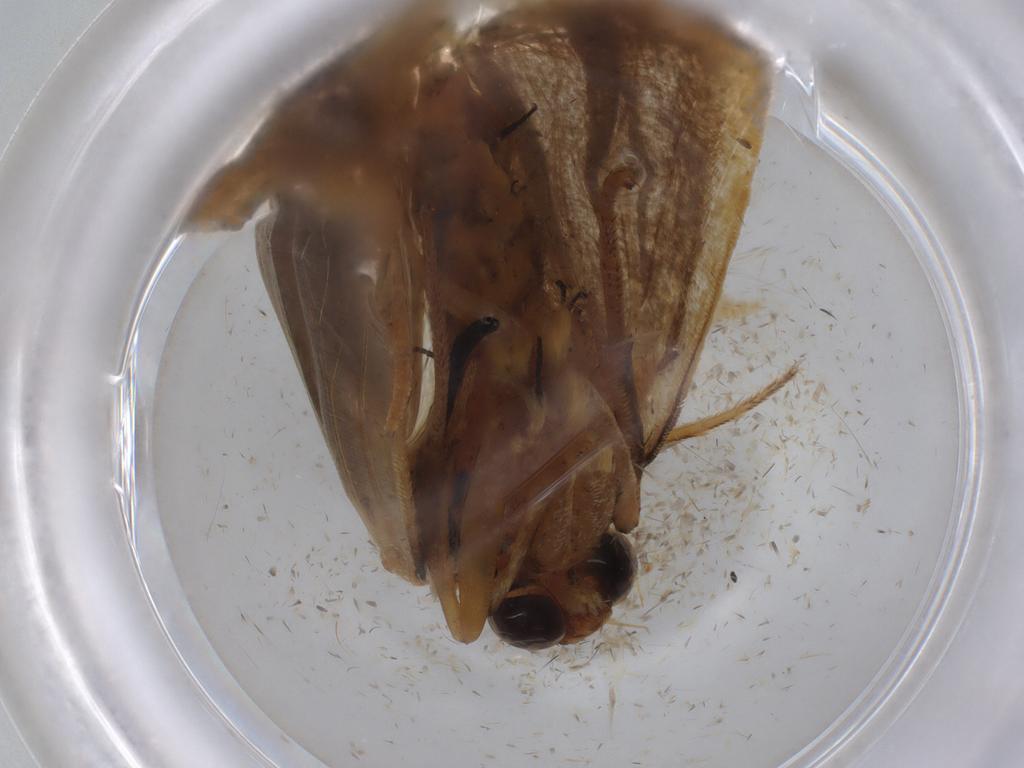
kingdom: Animalia
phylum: Arthropoda
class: Insecta
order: Lepidoptera
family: Noctuidae
